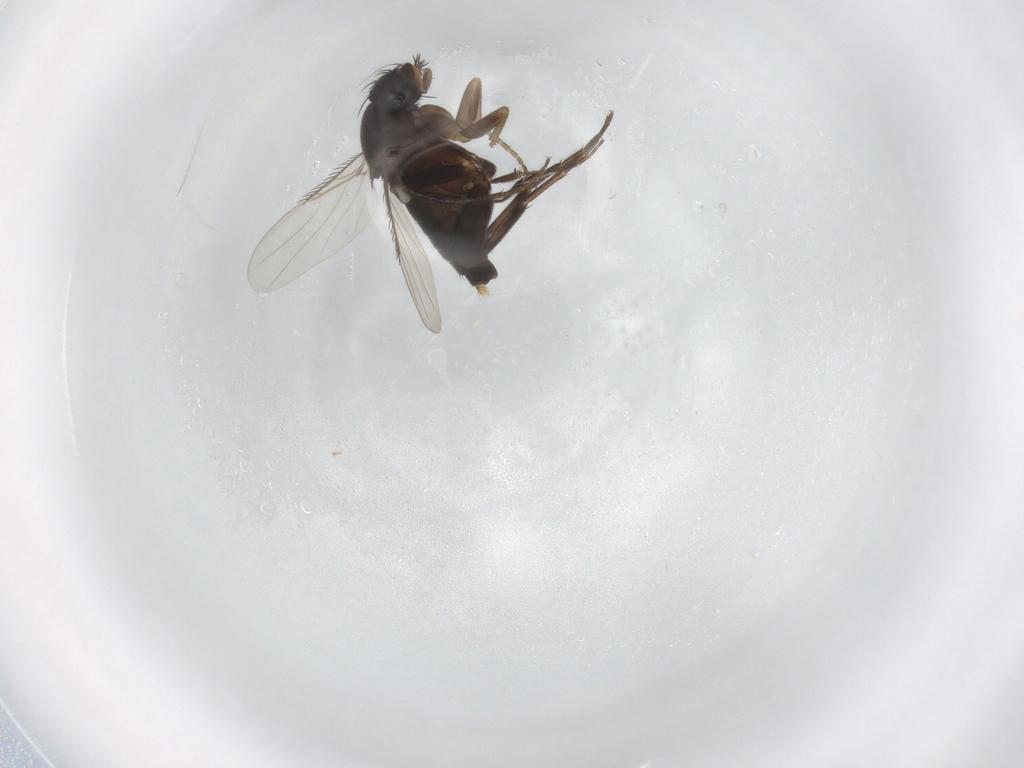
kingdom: Animalia
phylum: Arthropoda
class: Insecta
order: Diptera
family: Phoridae
